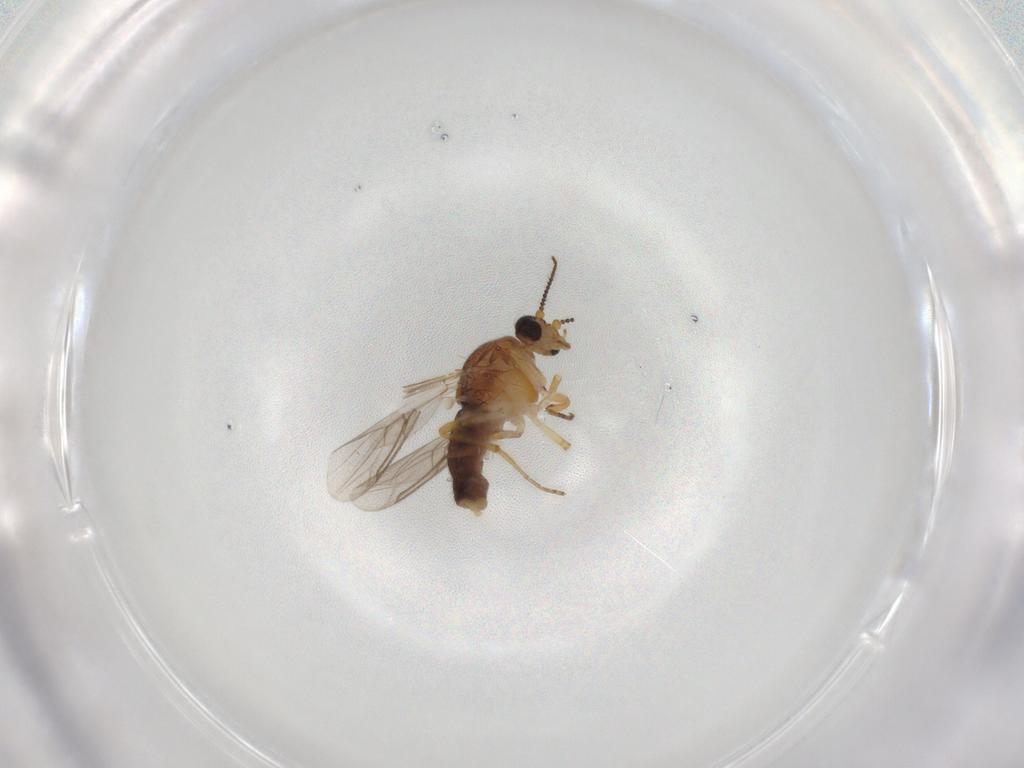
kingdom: Animalia
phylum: Arthropoda
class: Insecta
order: Diptera
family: Ceratopogonidae
